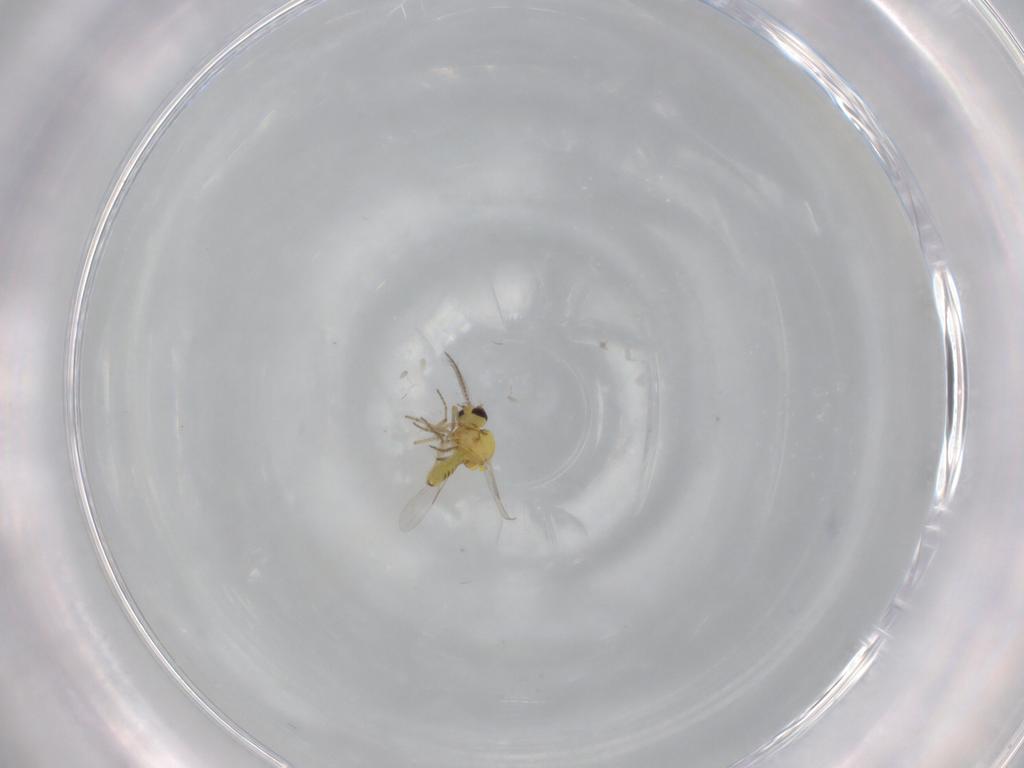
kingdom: Animalia
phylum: Arthropoda
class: Insecta
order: Diptera
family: Ceratopogonidae
